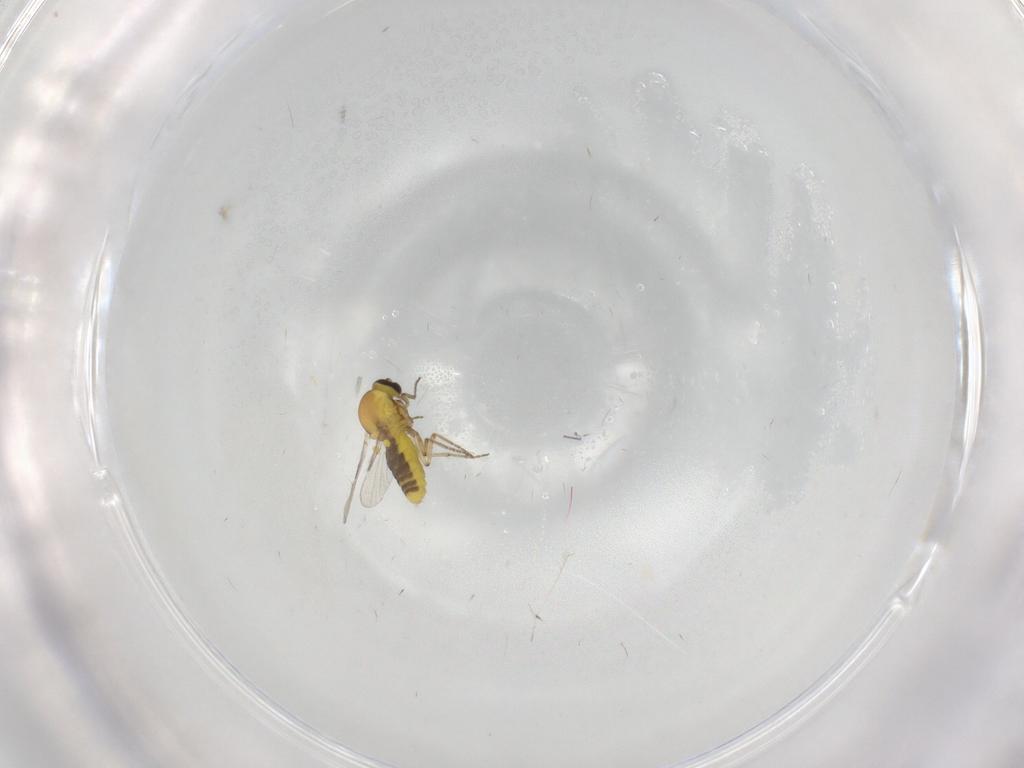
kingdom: Animalia
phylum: Arthropoda
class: Insecta
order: Diptera
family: Ceratopogonidae
